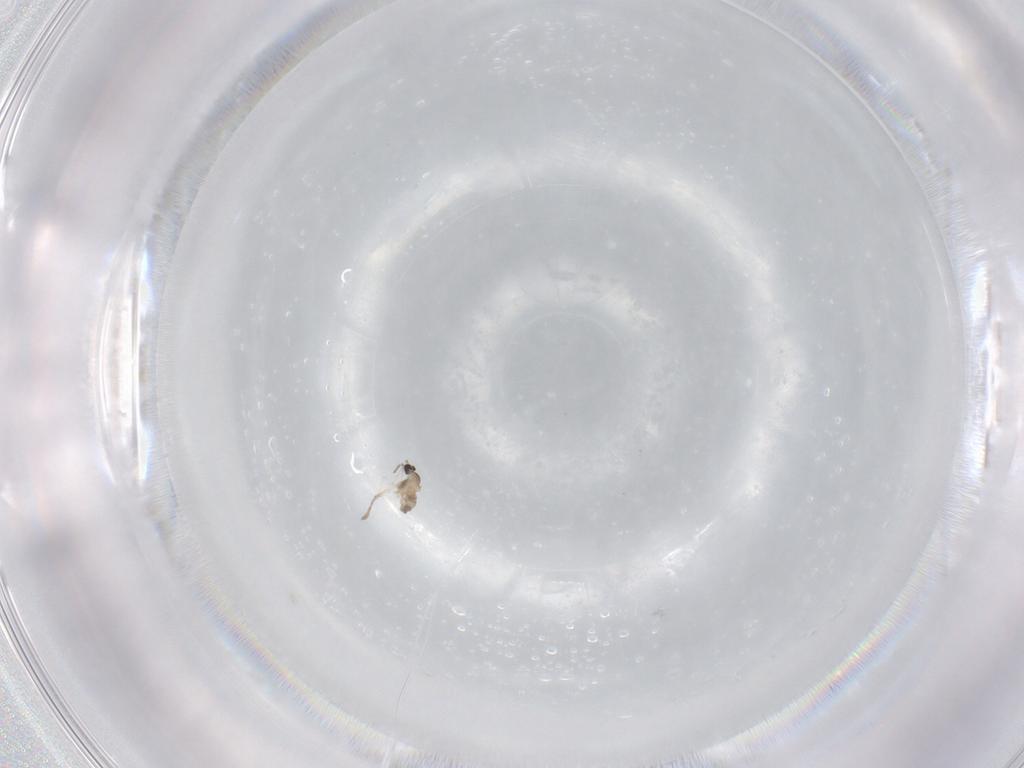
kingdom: Animalia
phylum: Arthropoda
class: Insecta
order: Diptera
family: Cecidomyiidae
